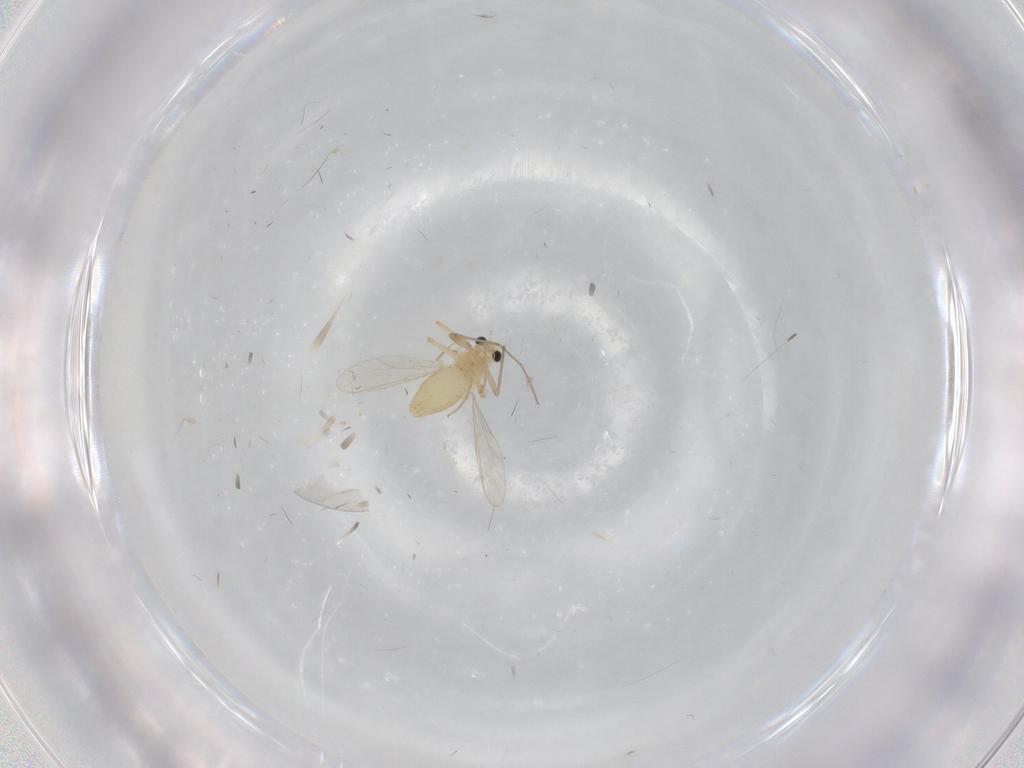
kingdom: Animalia
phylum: Arthropoda
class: Insecta
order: Diptera
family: Chironomidae
